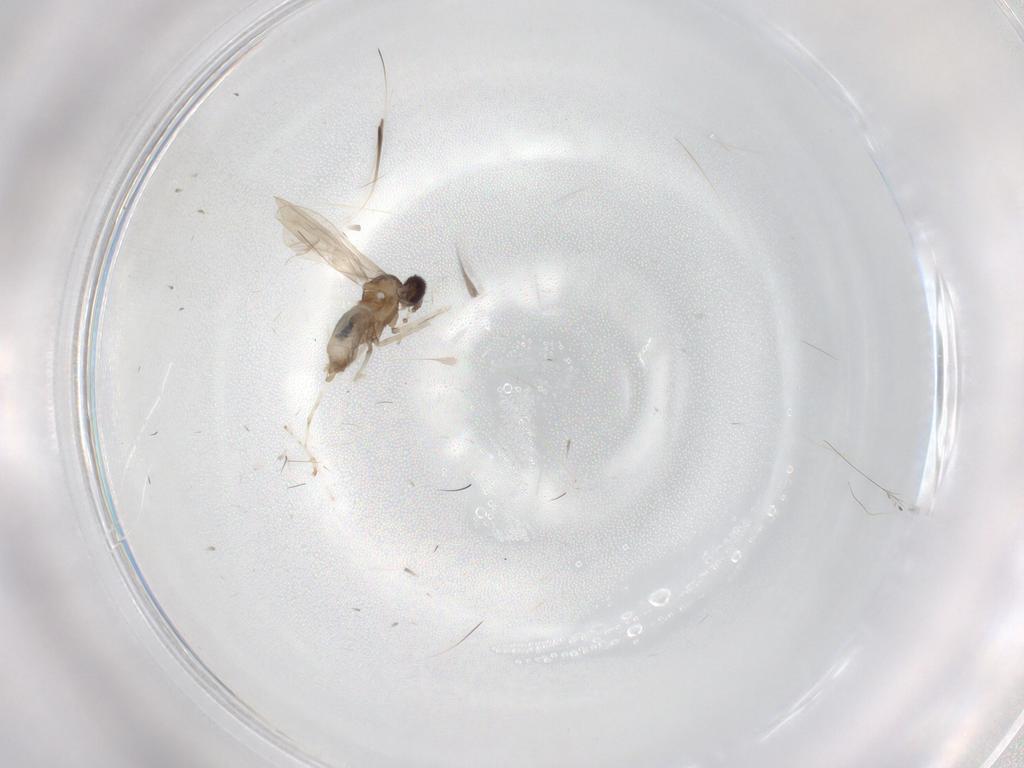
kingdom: Animalia
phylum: Arthropoda
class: Insecta
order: Diptera
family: Cecidomyiidae
